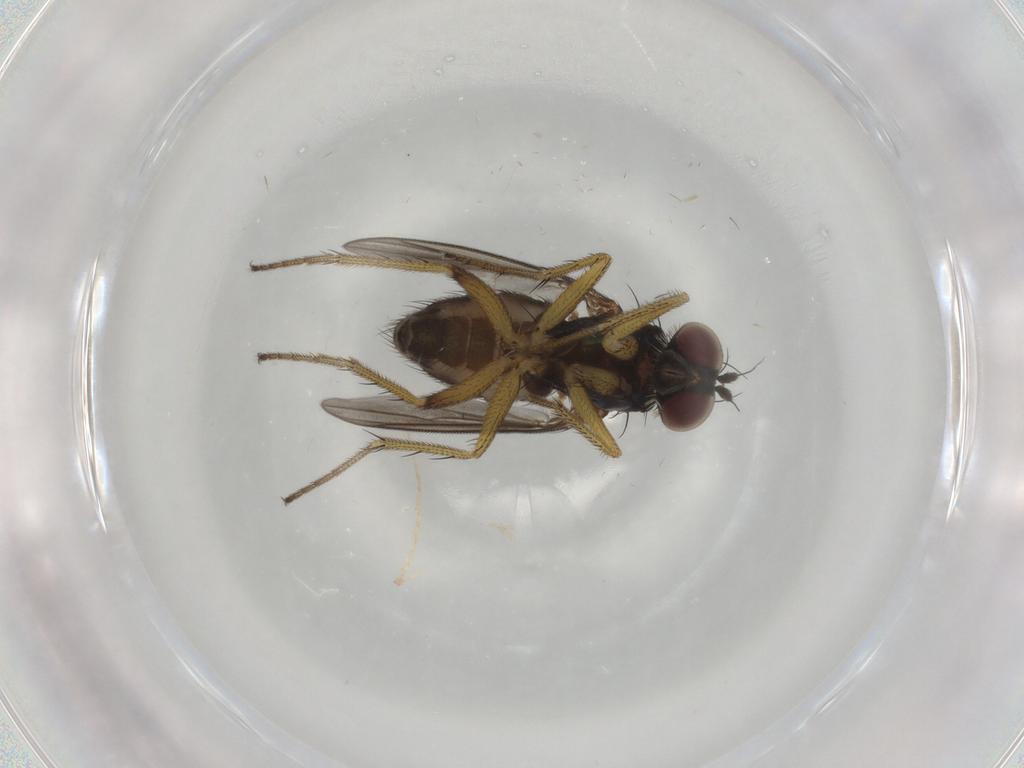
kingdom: Animalia
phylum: Arthropoda
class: Insecta
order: Diptera
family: Dolichopodidae
